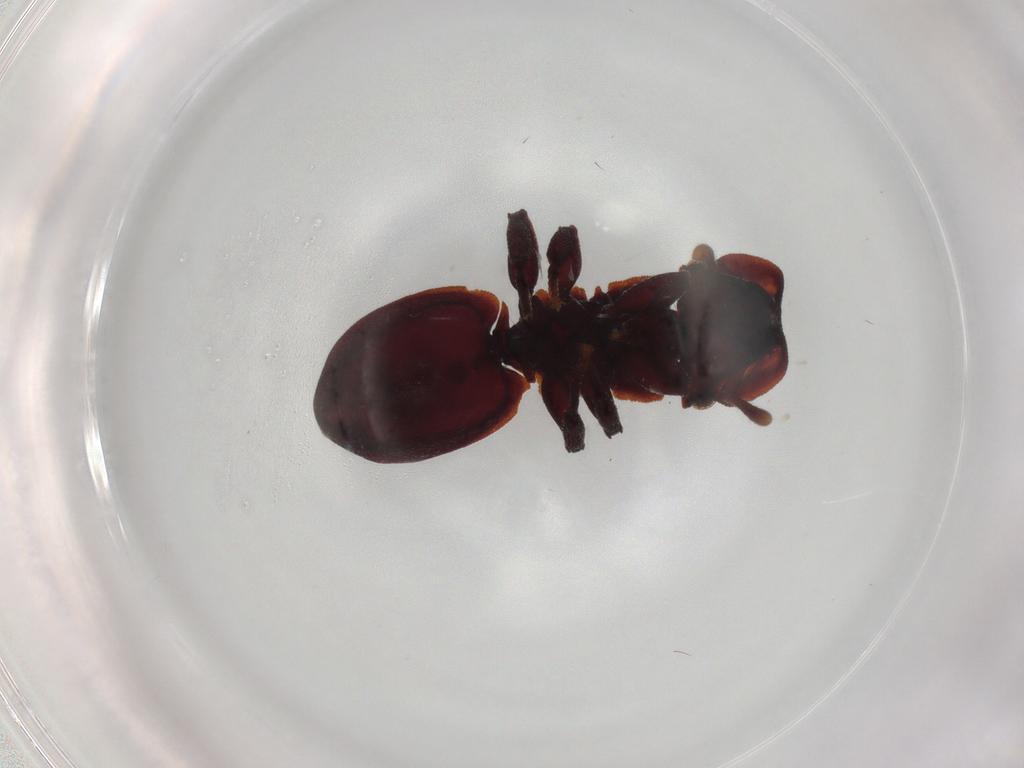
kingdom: Animalia
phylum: Arthropoda
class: Insecta
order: Hymenoptera
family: Formicidae
